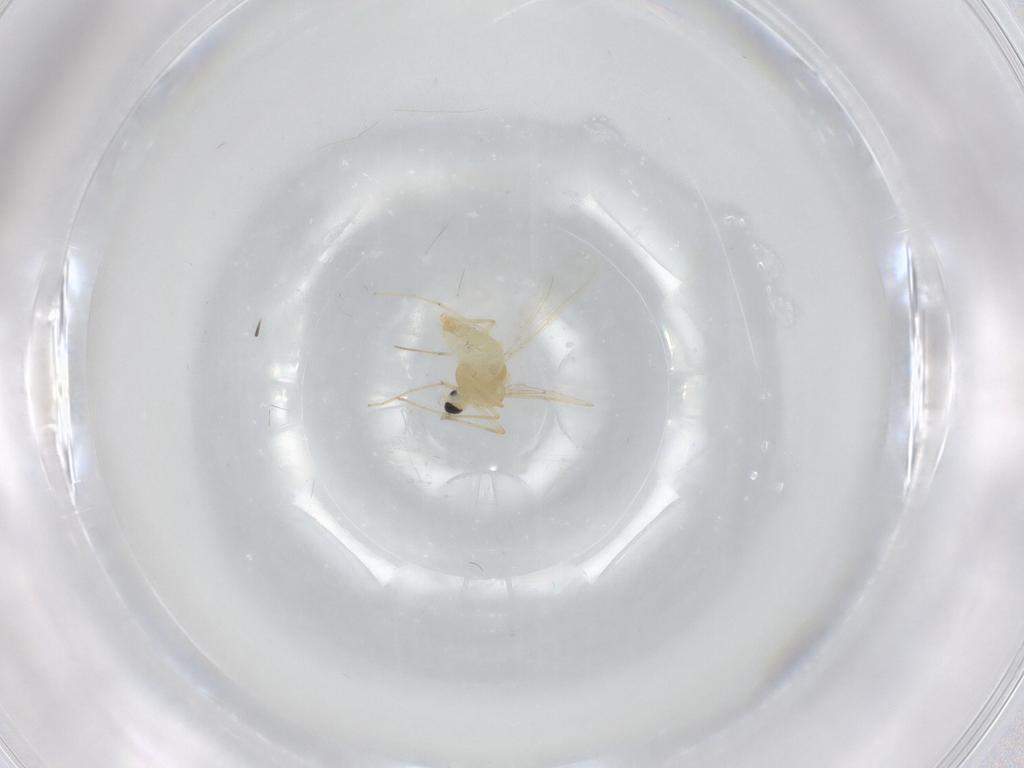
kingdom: Animalia
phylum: Arthropoda
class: Insecta
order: Diptera
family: Chironomidae
